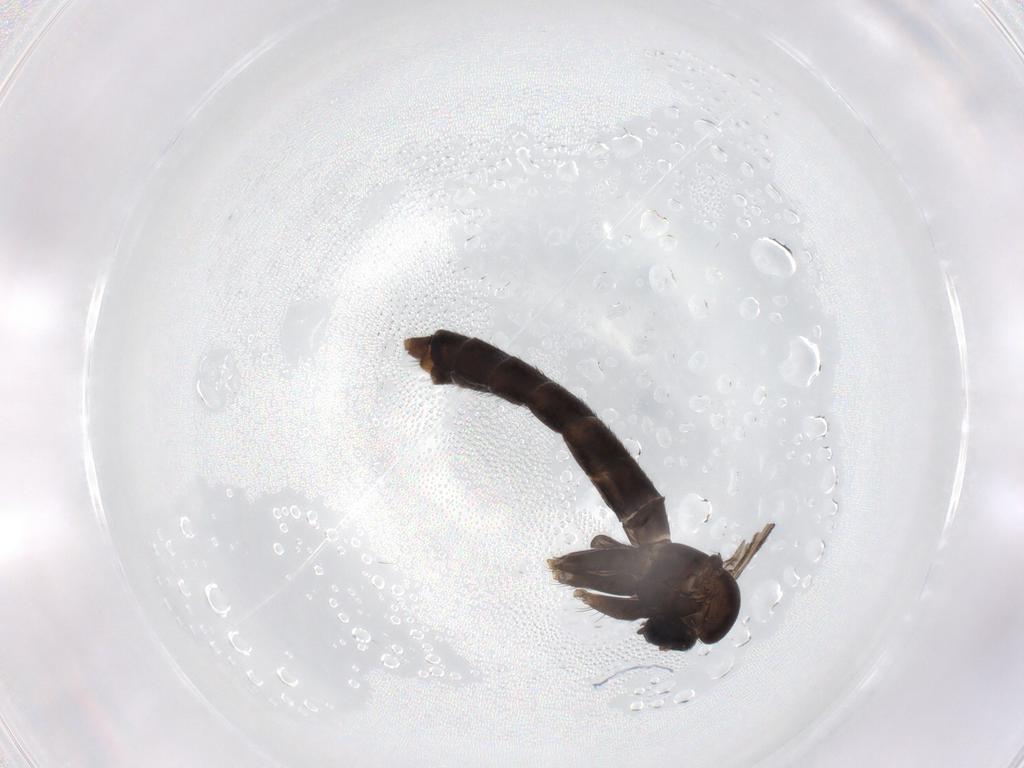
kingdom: Animalia
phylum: Arthropoda
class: Insecta
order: Diptera
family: Keroplatidae
